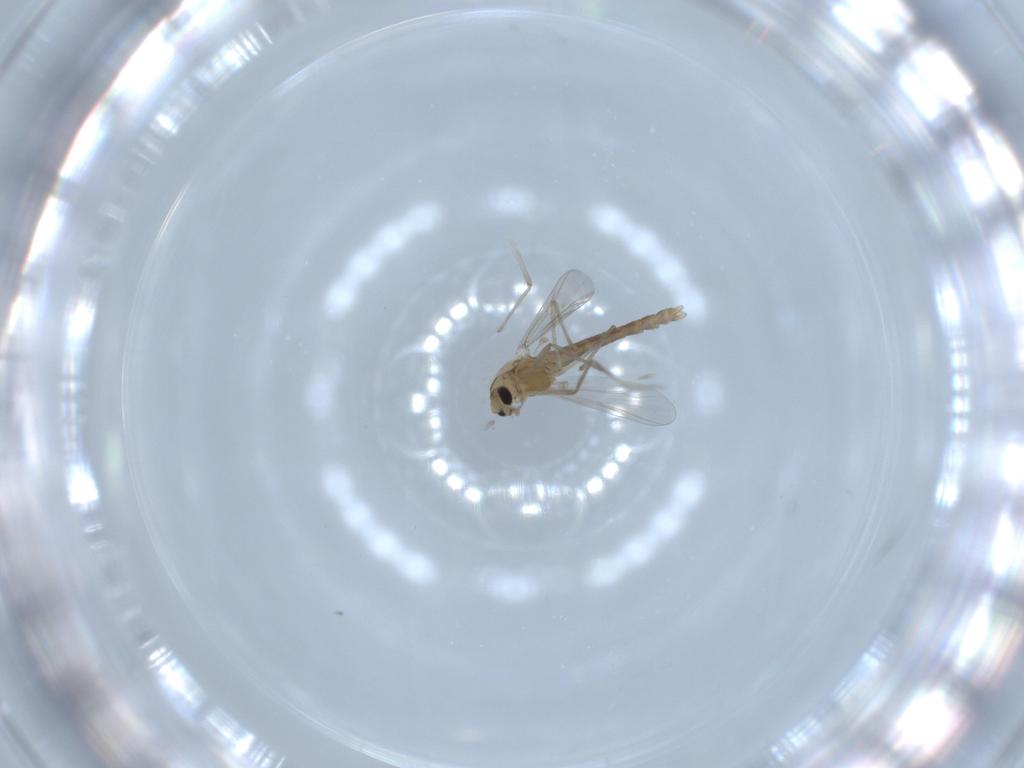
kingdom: Animalia
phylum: Arthropoda
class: Insecta
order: Diptera
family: Chironomidae
